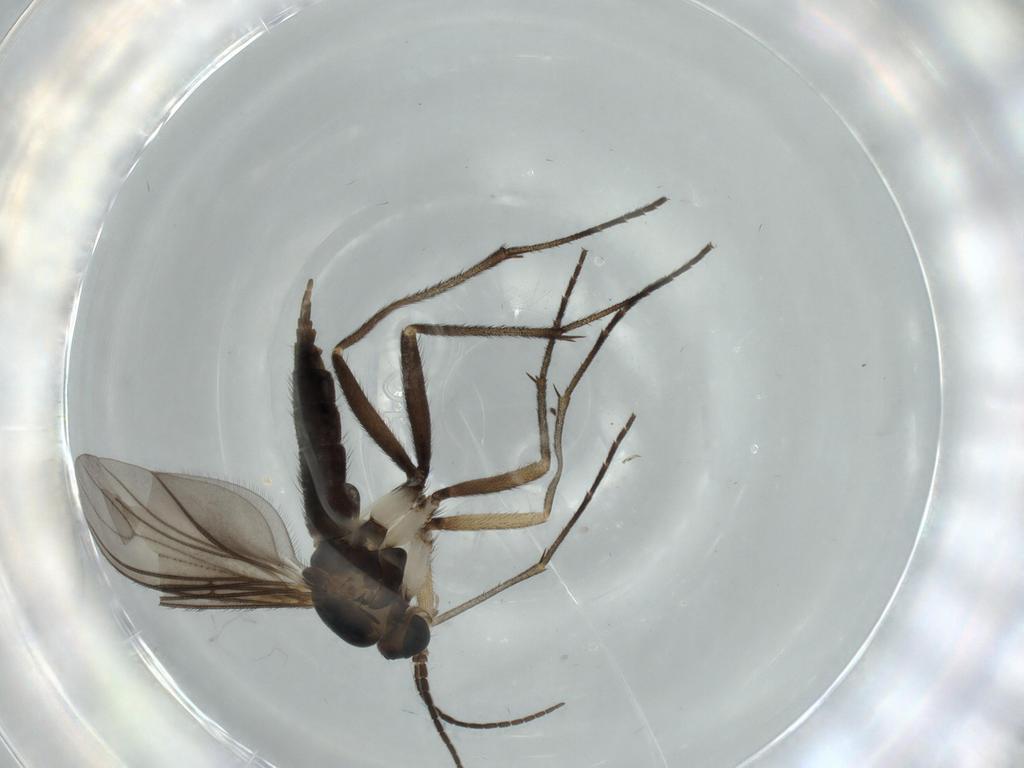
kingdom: Animalia
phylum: Arthropoda
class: Insecta
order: Diptera
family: Sciaridae
